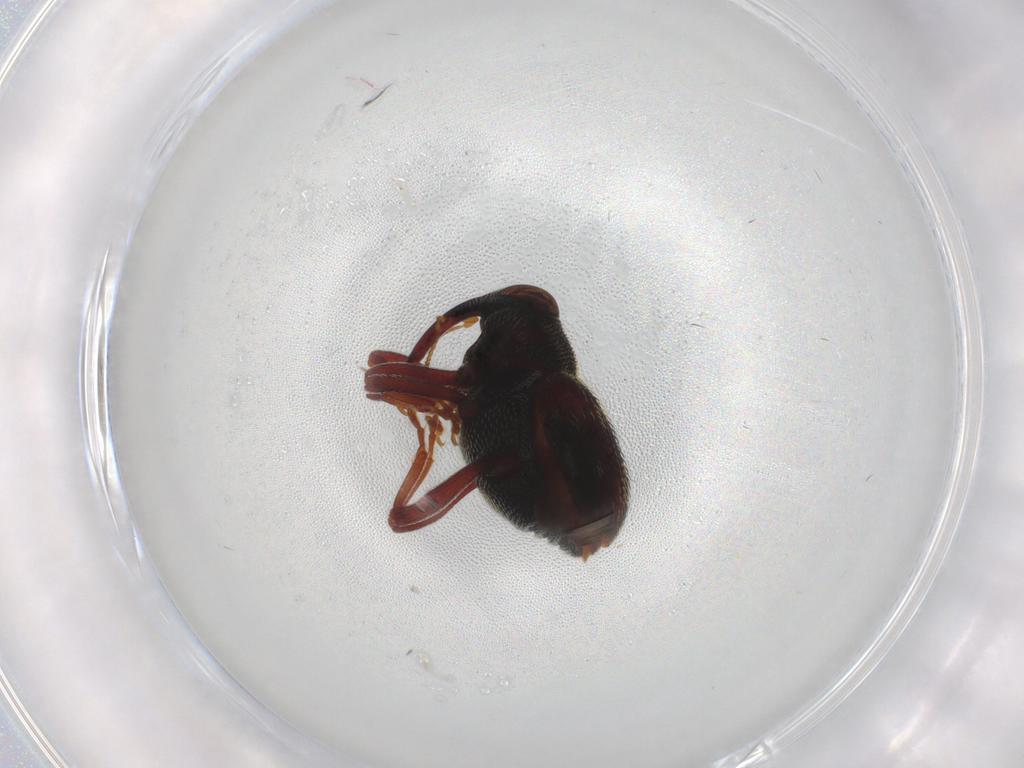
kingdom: Animalia
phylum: Arthropoda
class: Insecta
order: Coleoptera
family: Curculionidae
